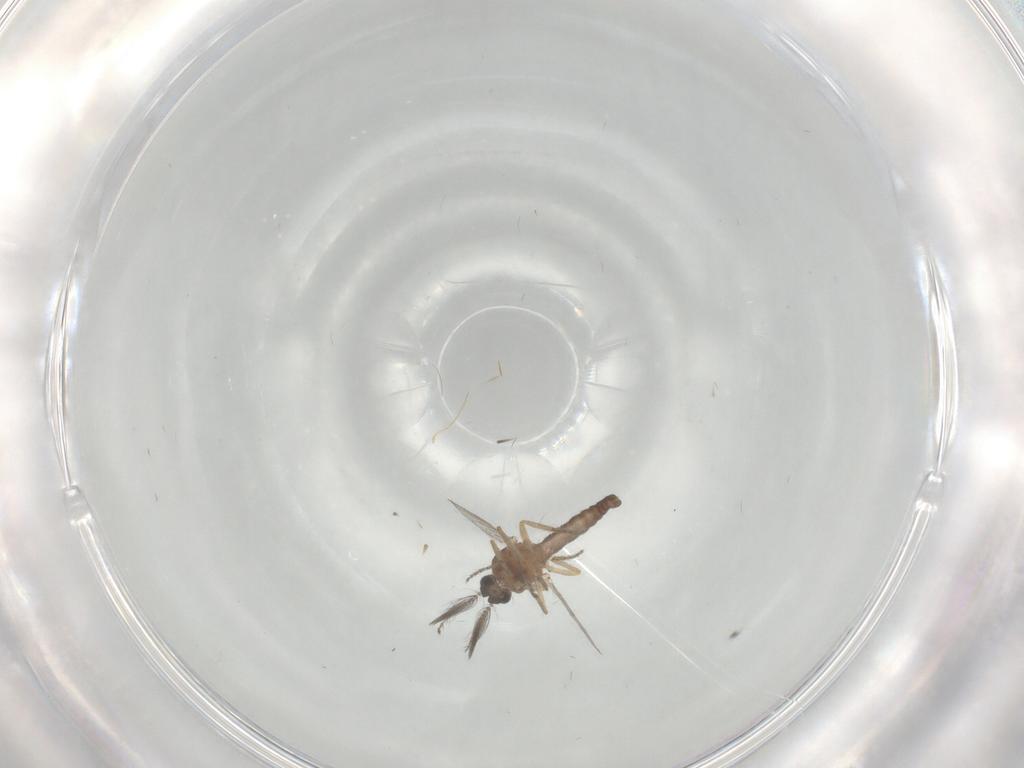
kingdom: Animalia
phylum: Arthropoda
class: Insecta
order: Diptera
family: Ceratopogonidae
